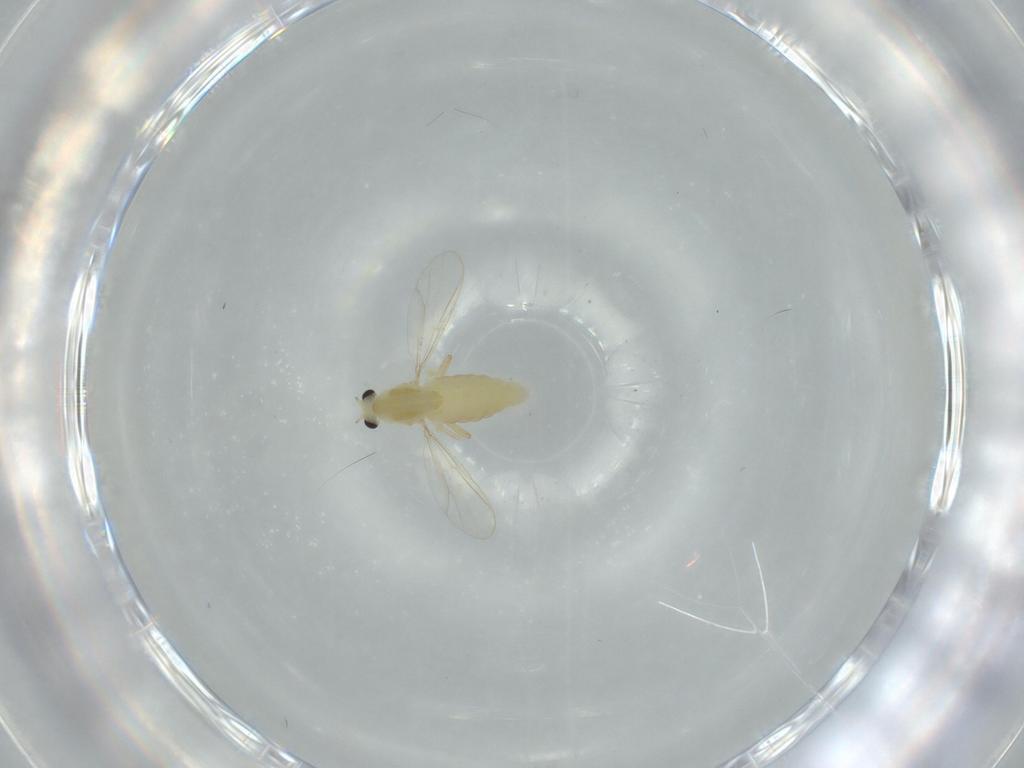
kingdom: Animalia
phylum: Arthropoda
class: Insecta
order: Diptera
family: Chironomidae
